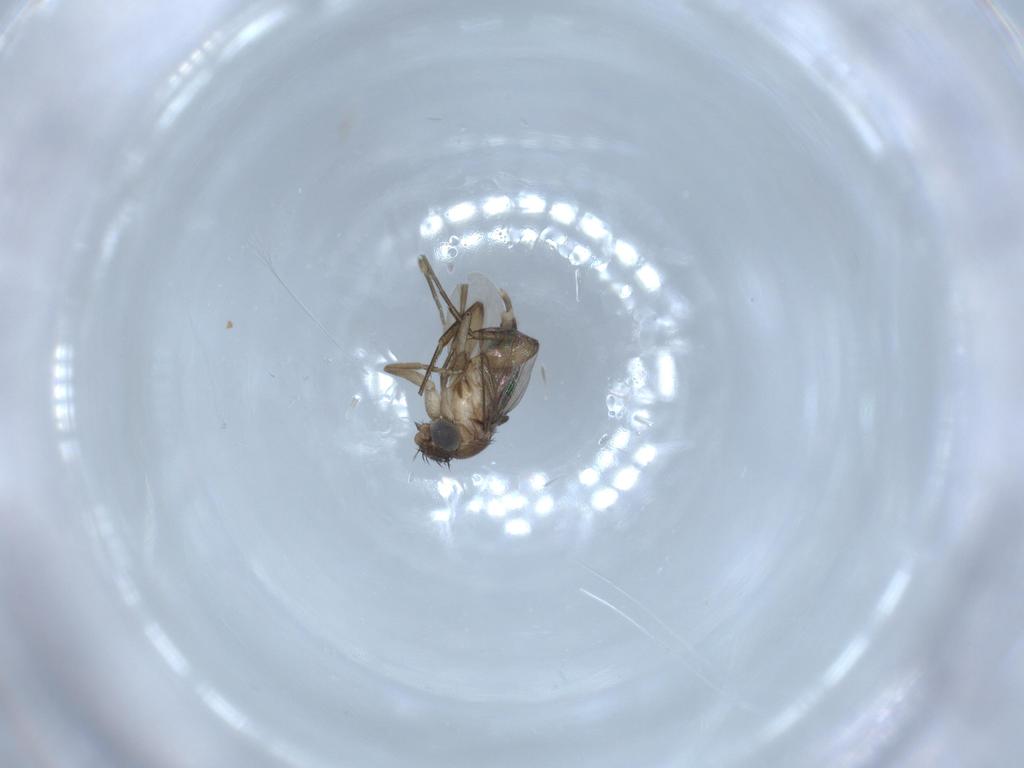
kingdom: Animalia
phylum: Arthropoda
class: Insecta
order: Diptera
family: Phoridae
